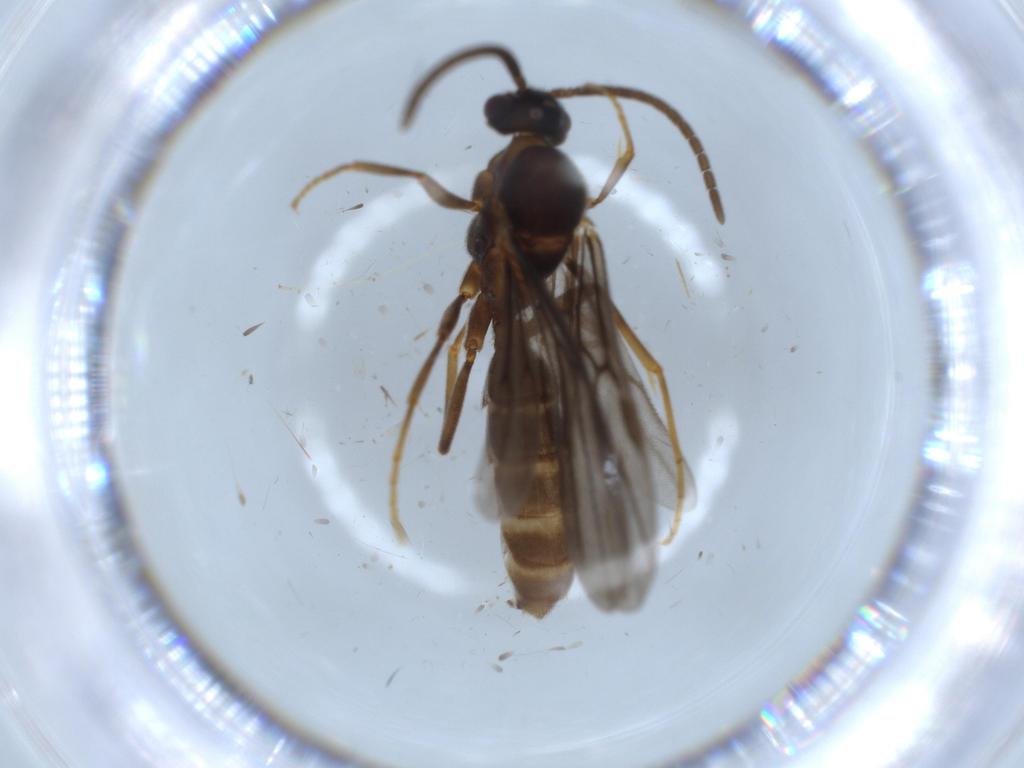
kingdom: Animalia
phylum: Arthropoda
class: Insecta
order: Hymenoptera
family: Formicidae
